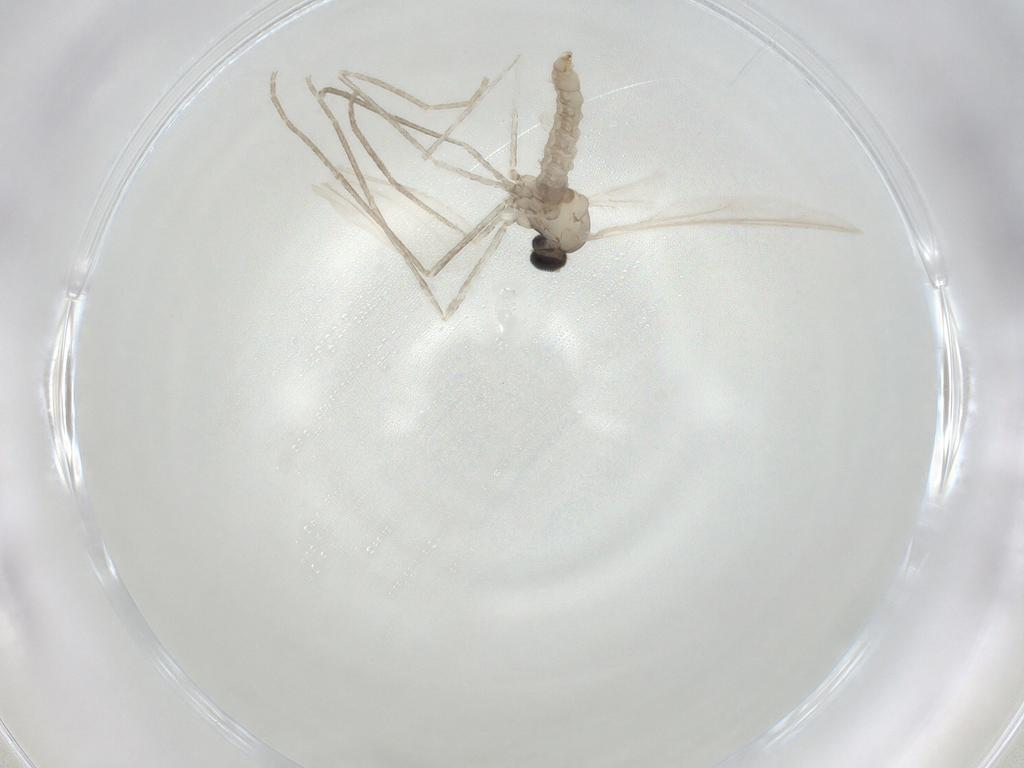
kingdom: Animalia
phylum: Arthropoda
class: Insecta
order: Diptera
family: Cecidomyiidae
